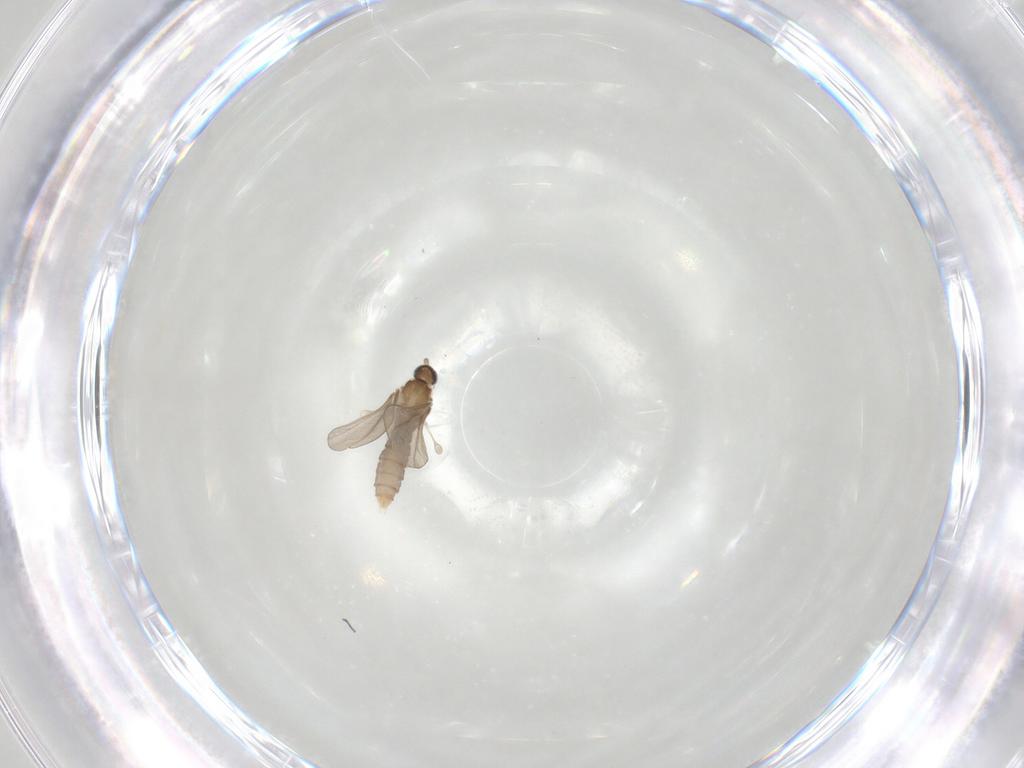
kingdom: Animalia
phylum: Arthropoda
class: Insecta
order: Diptera
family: Cecidomyiidae
